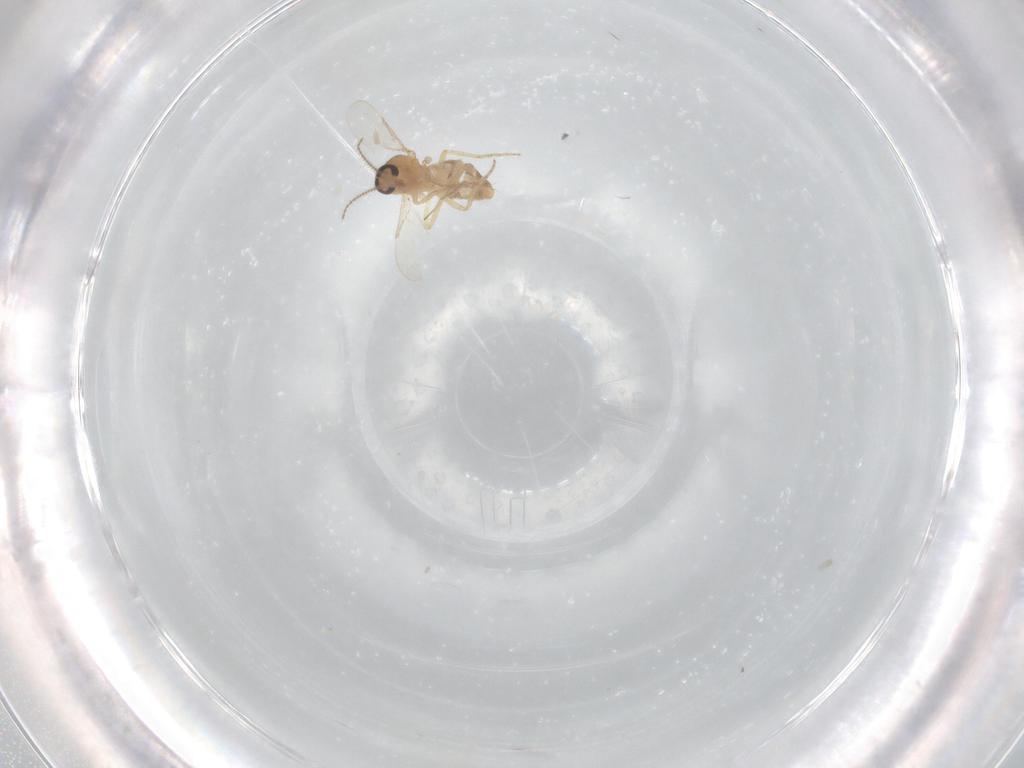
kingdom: Animalia
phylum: Arthropoda
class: Insecta
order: Diptera
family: Ceratopogonidae
